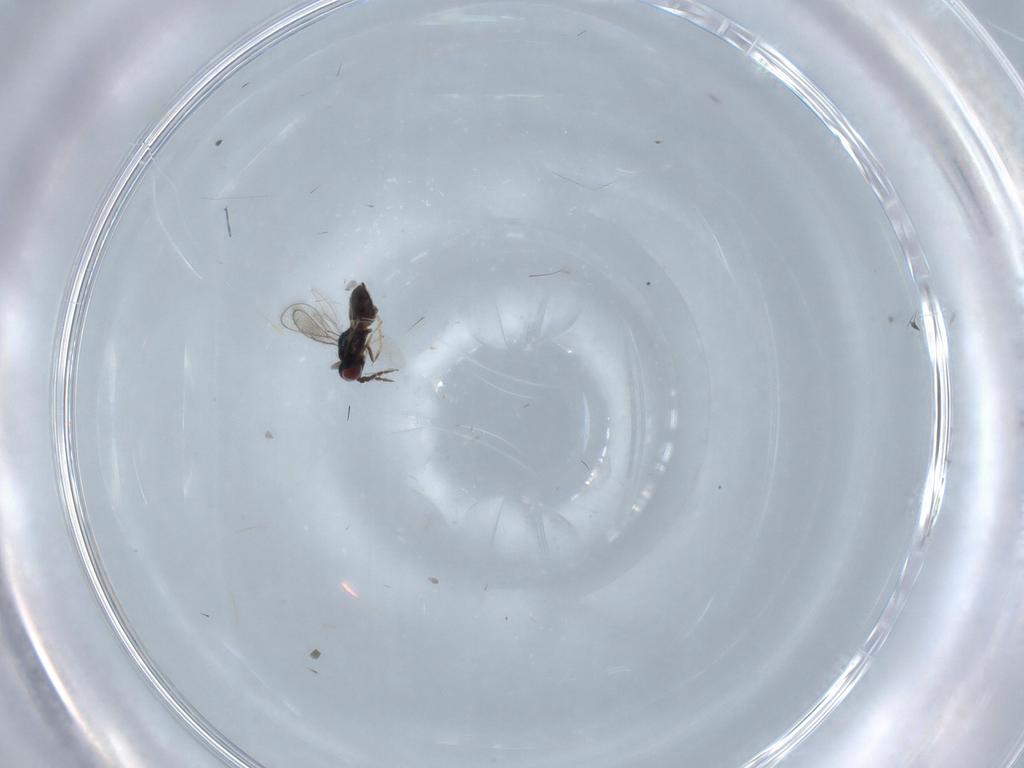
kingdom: Animalia
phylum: Arthropoda
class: Insecta
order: Hymenoptera
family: Eulophidae
